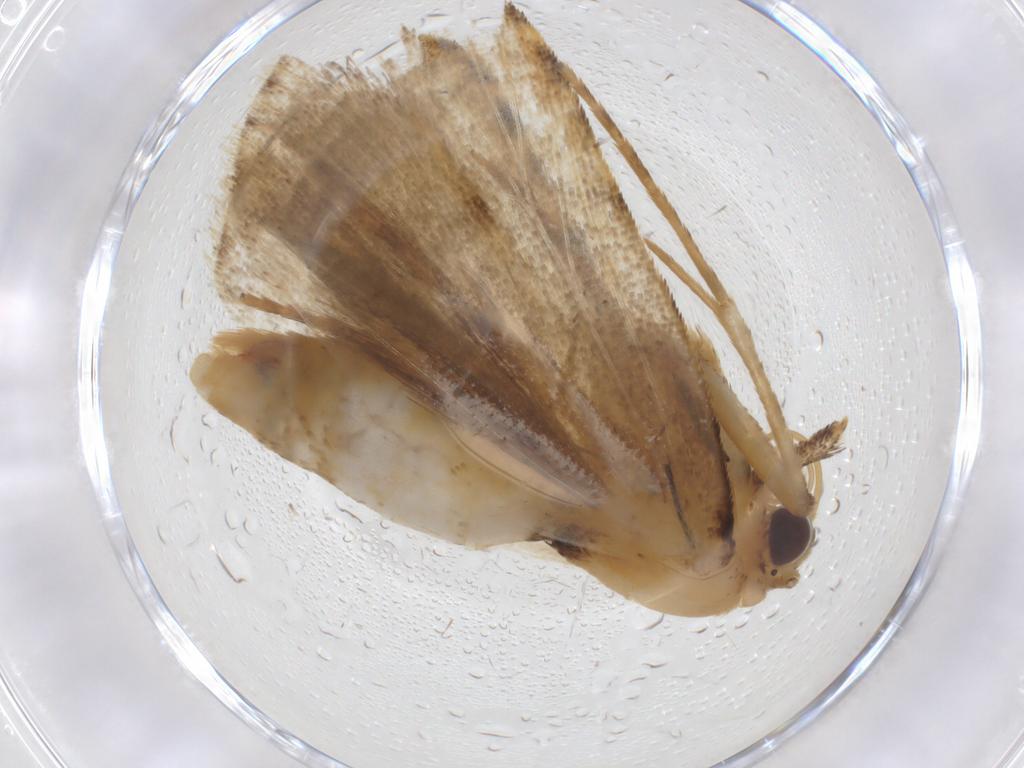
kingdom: Animalia
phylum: Arthropoda
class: Insecta
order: Lepidoptera
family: Erebidae
